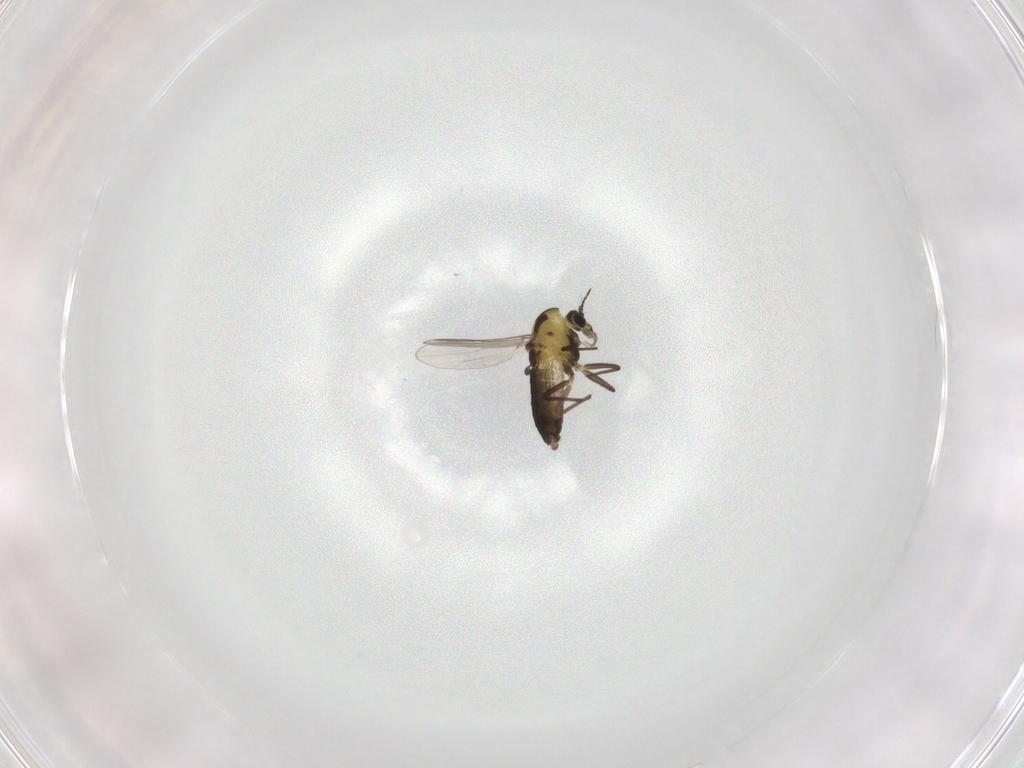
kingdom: Animalia
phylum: Arthropoda
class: Insecta
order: Diptera
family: Chironomidae
